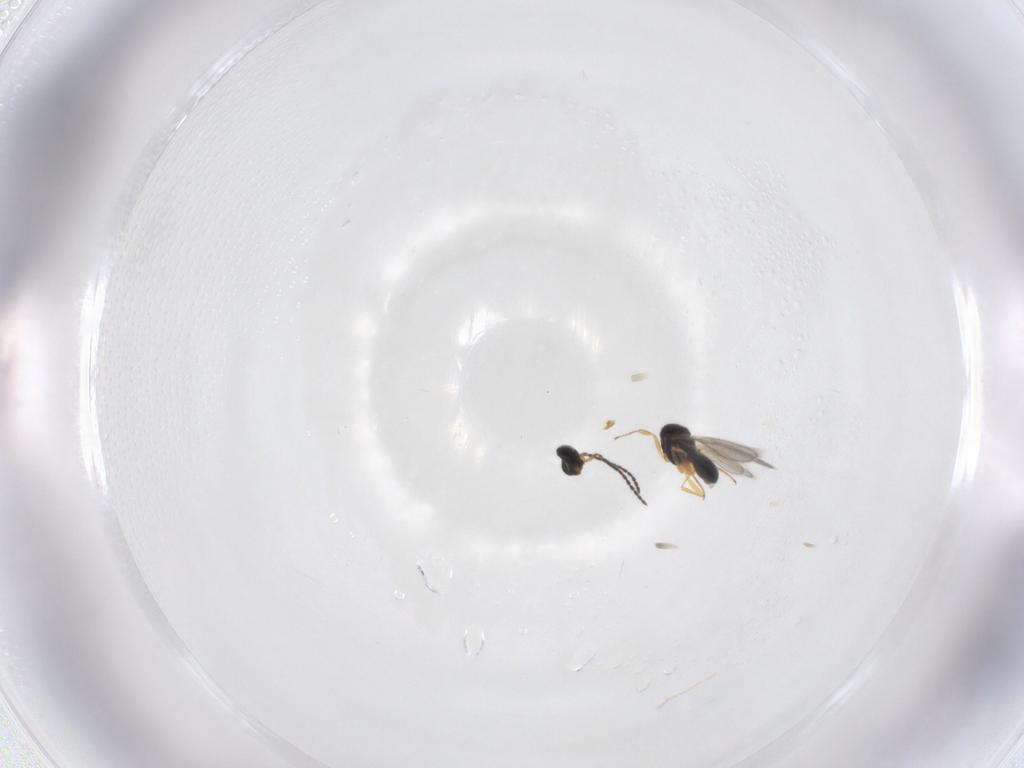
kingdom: Animalia
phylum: Arthropoda
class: Insecta
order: Hymenoptera
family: Scelionidae
